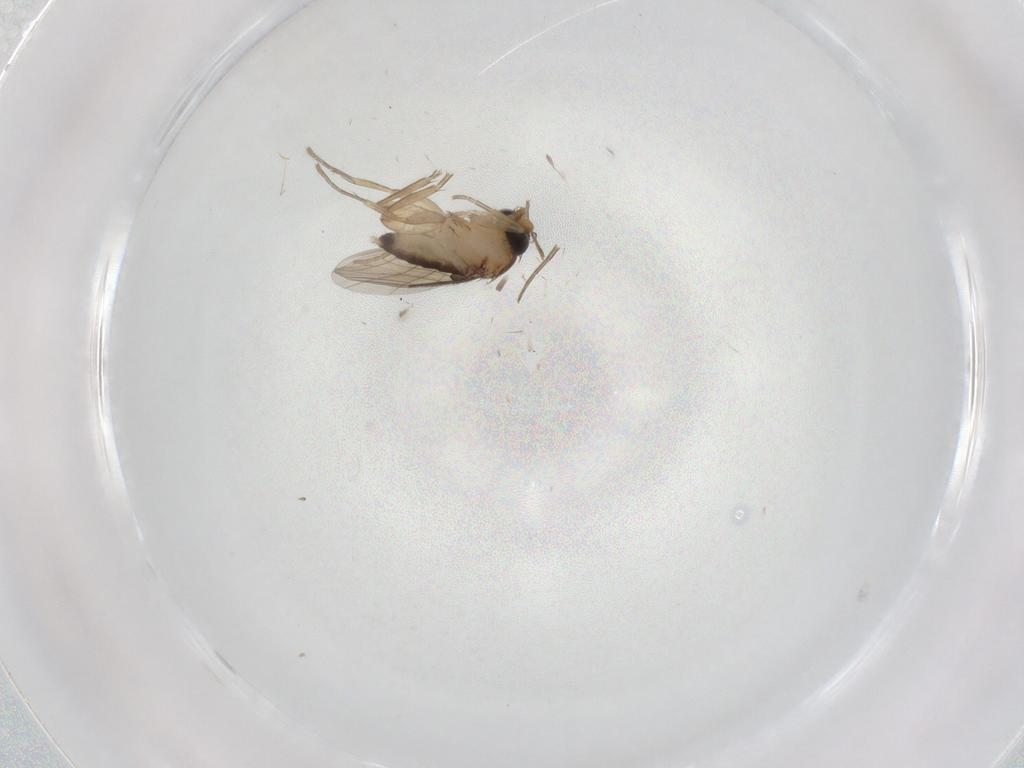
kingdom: Animalia
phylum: Arthropoda
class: Insecta
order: Diptera
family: Phoridae
